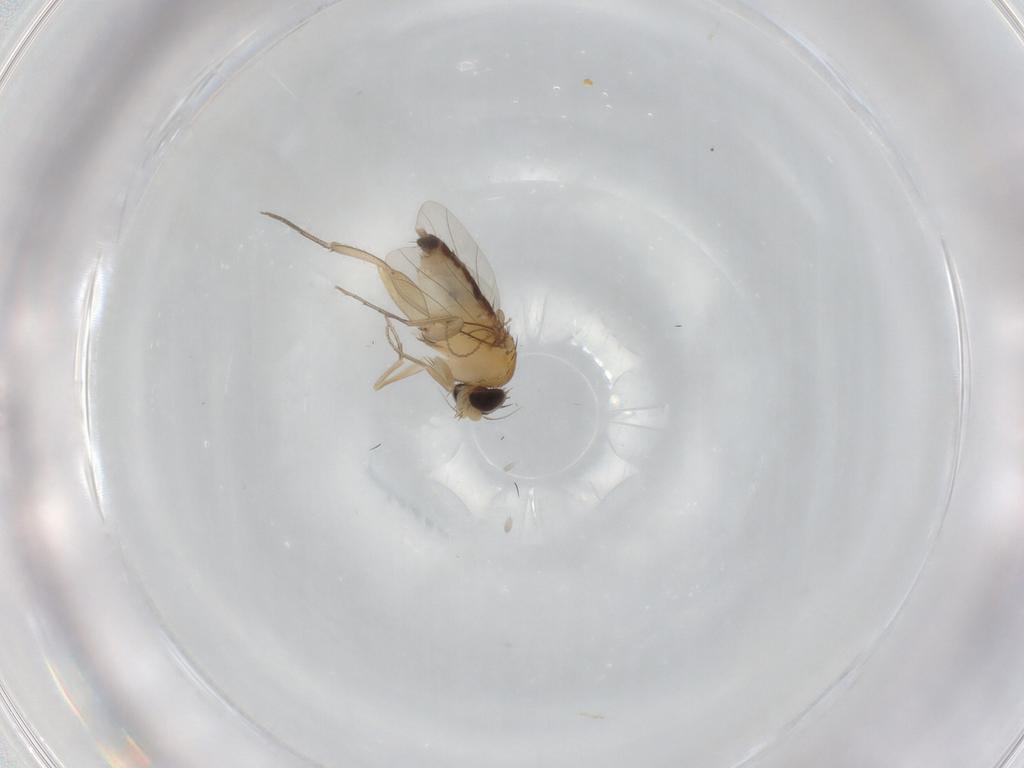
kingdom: Animalia
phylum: Arthropoda
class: Insecta
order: Diptera
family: Phoridae
